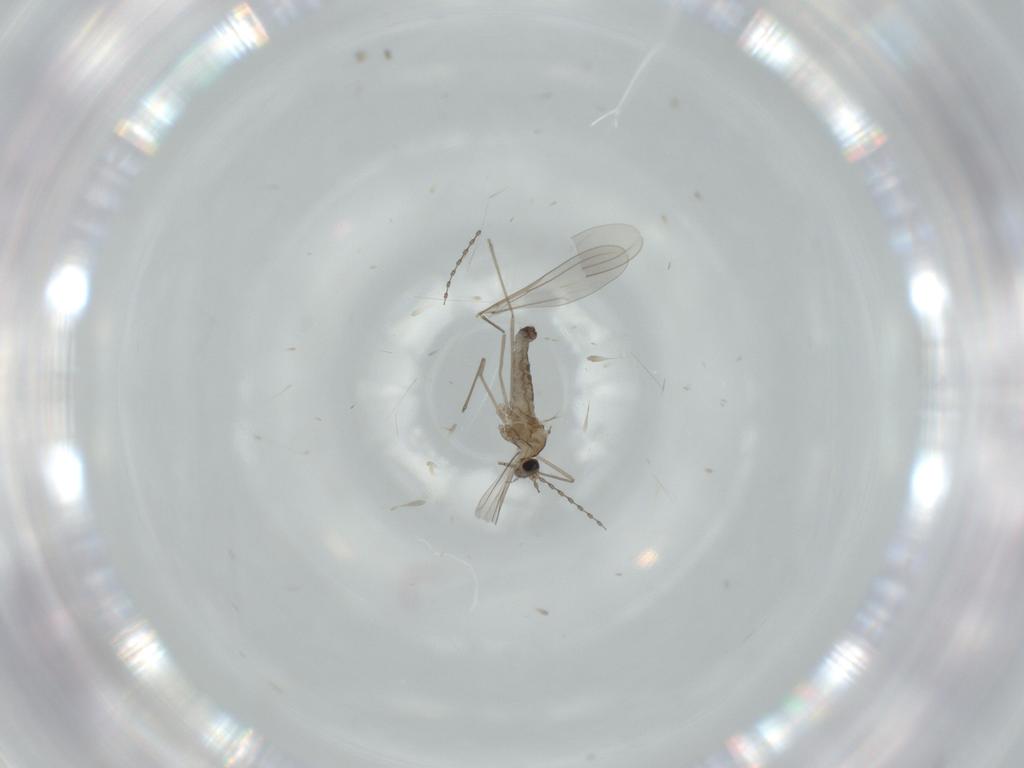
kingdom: Animalia
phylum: Arthropoda
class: Insecta
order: Diptera
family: Cecidomyiidae
